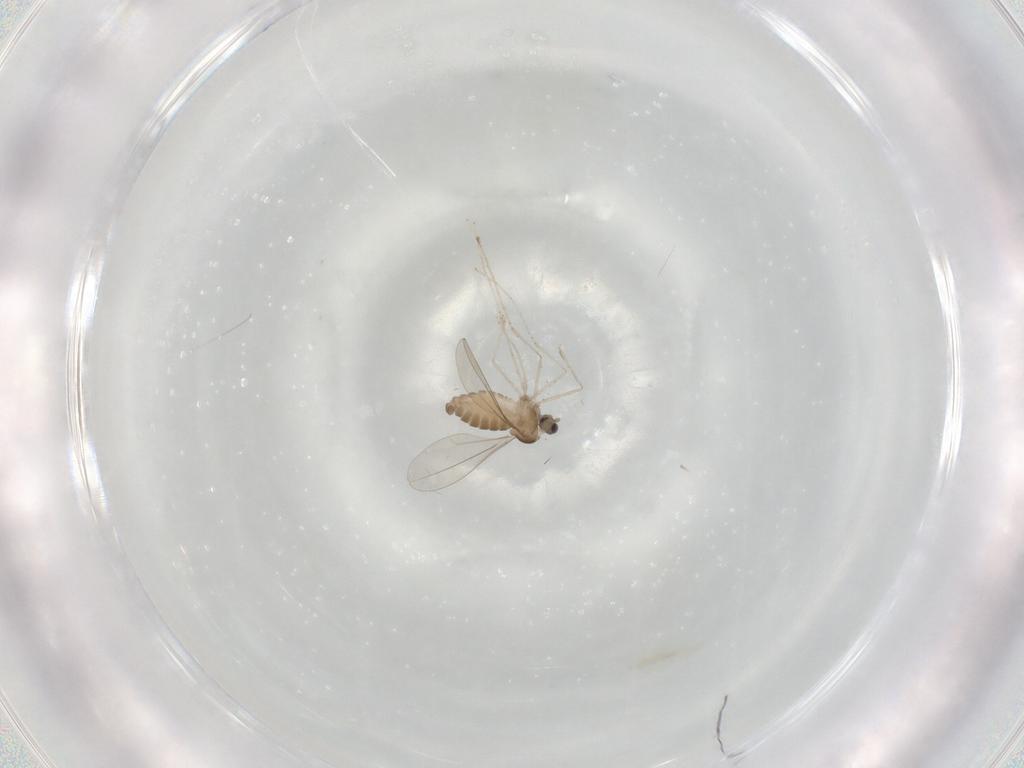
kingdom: Animalia
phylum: Arthropoda
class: Insecta
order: Diptera
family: Cecidomyiidae
